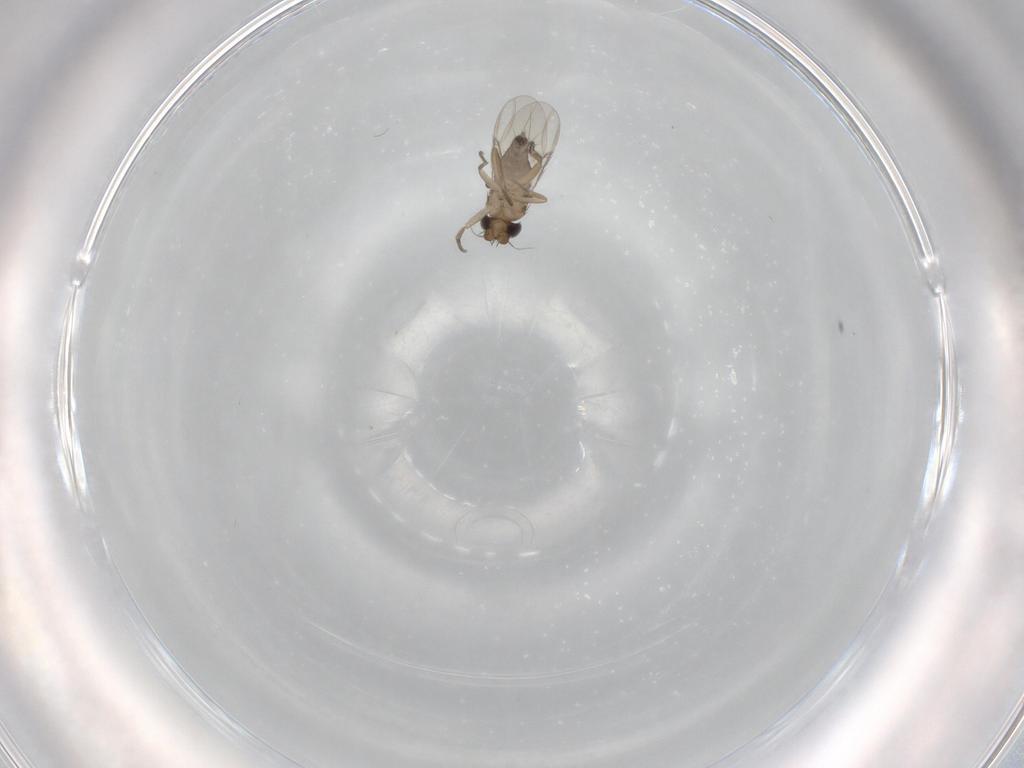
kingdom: Animalia
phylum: Arthropoda
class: Insecta
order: Diptera
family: Phoridae
